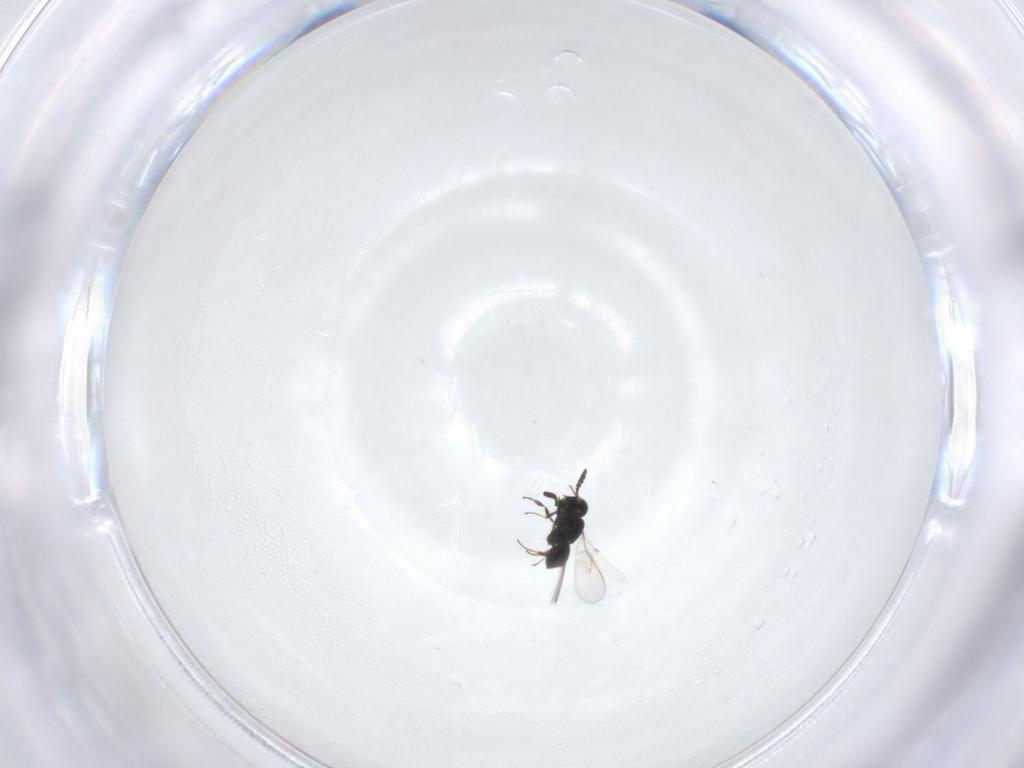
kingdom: Animalia
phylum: Arthropoda
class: Insecta
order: Hymenoptera
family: Scelionidae
